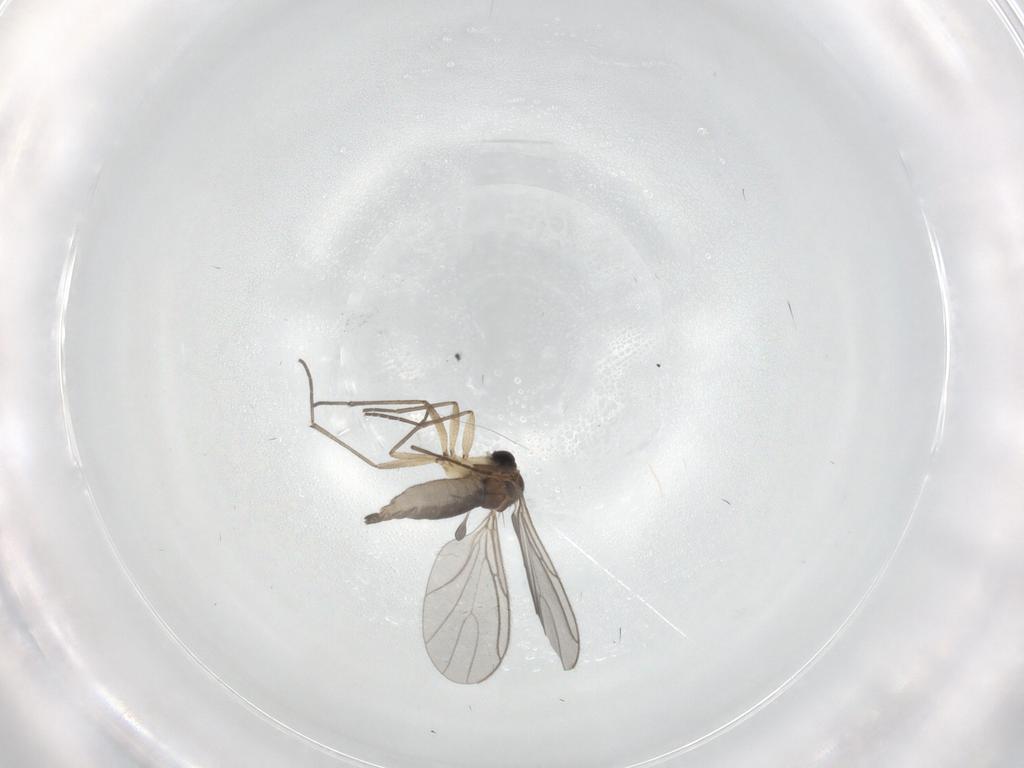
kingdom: Animalia
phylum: Arthropoda
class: Insecta
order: Diptera
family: Sciaridae
